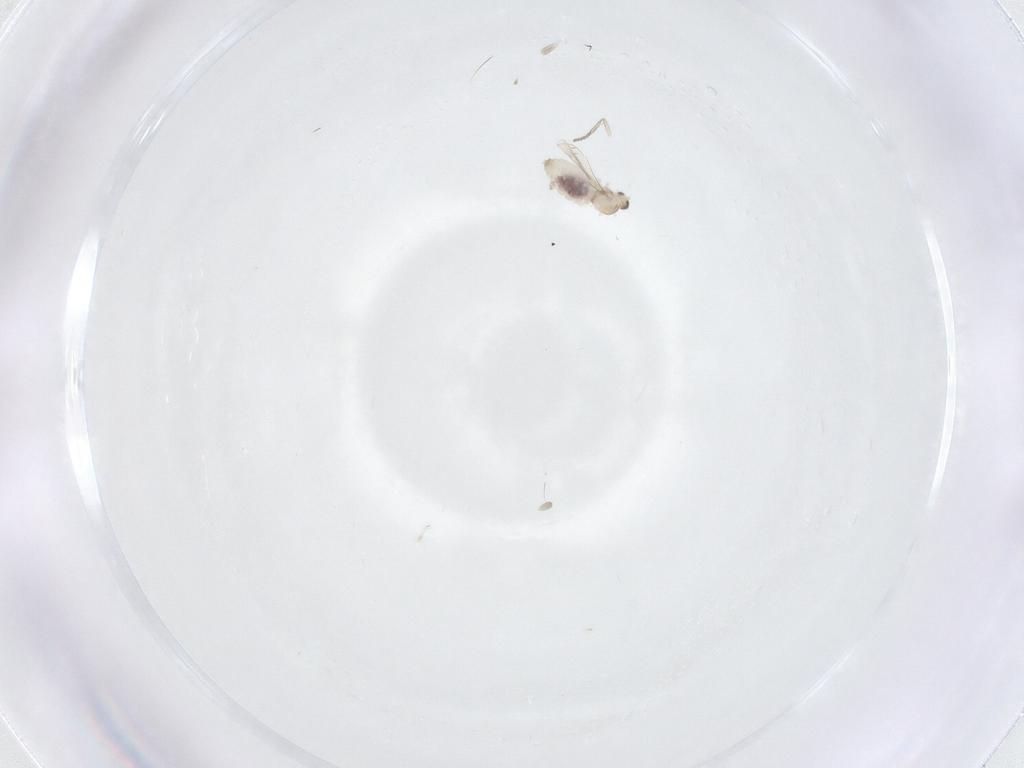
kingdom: Animalia
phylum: Arthropoda
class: Insecta
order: Diptera
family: Cecidomyiidae
